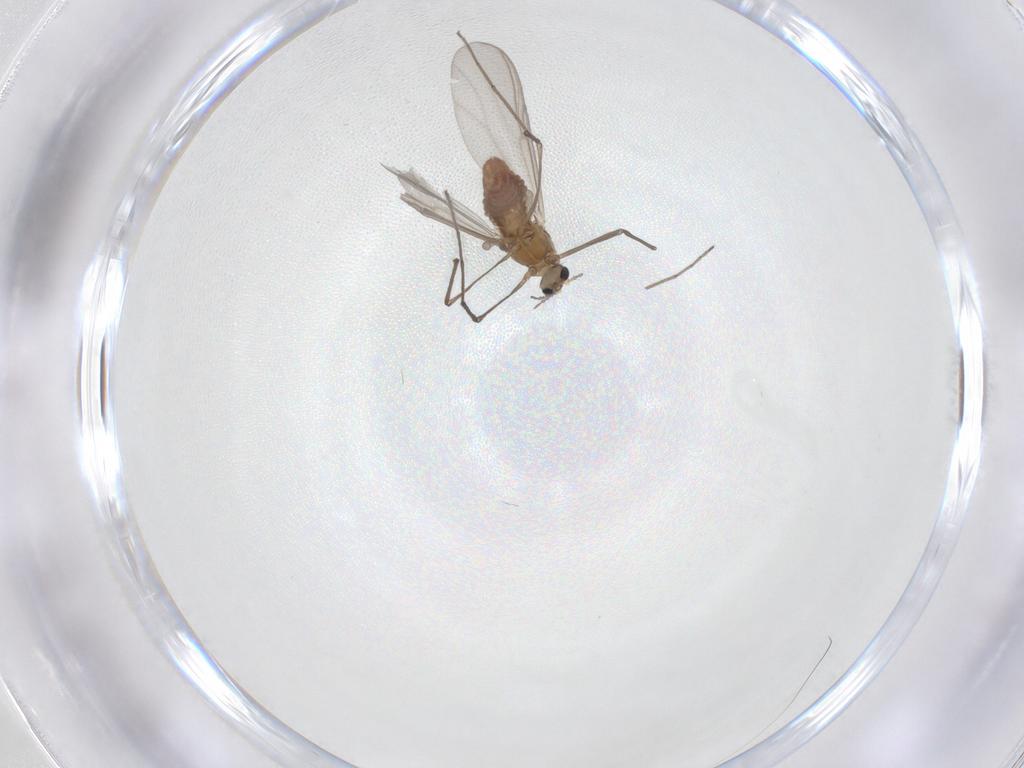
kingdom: Animalia
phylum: Arthropoda
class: Insecta
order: Diptera
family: Chironomidae
